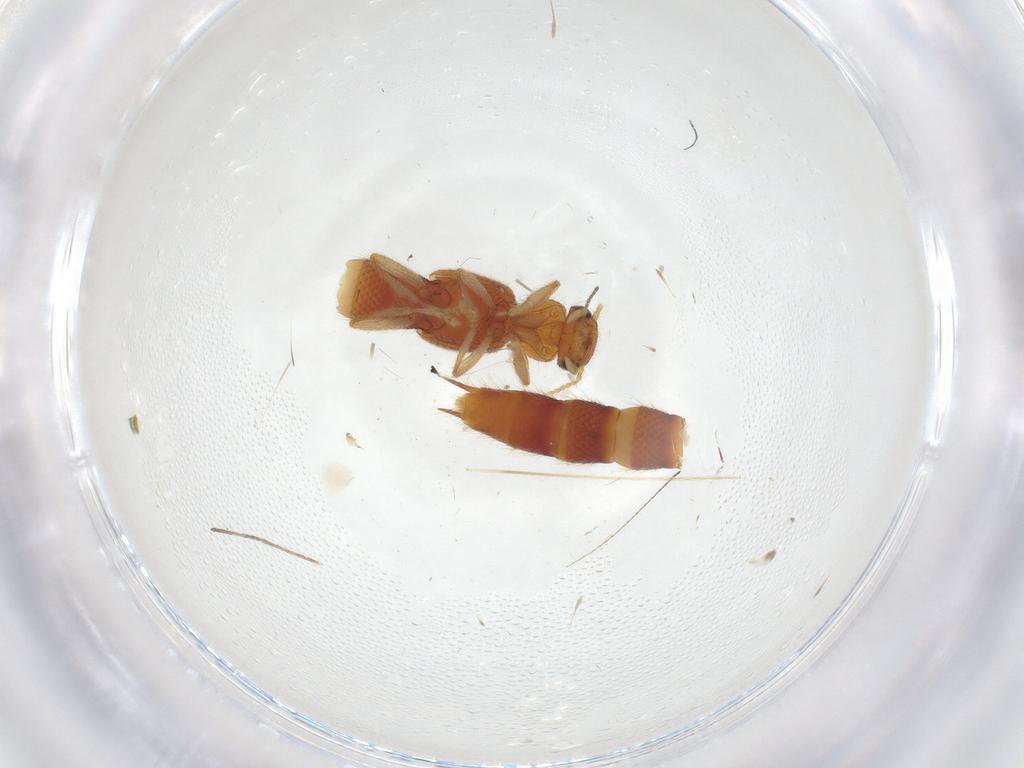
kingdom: Animalia
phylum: Arthropoda
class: Insecta
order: Coleoptera
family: Staphylinidae
